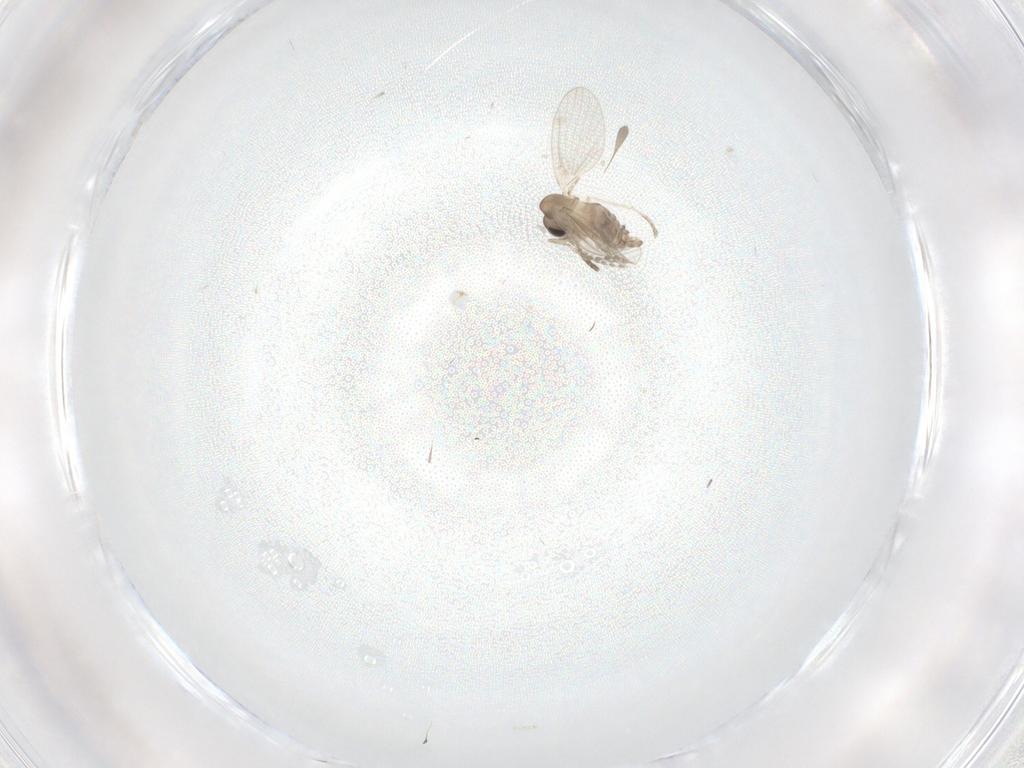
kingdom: Animalia
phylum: Arthropoda
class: Insecta
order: Diptera
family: Psychodidae
